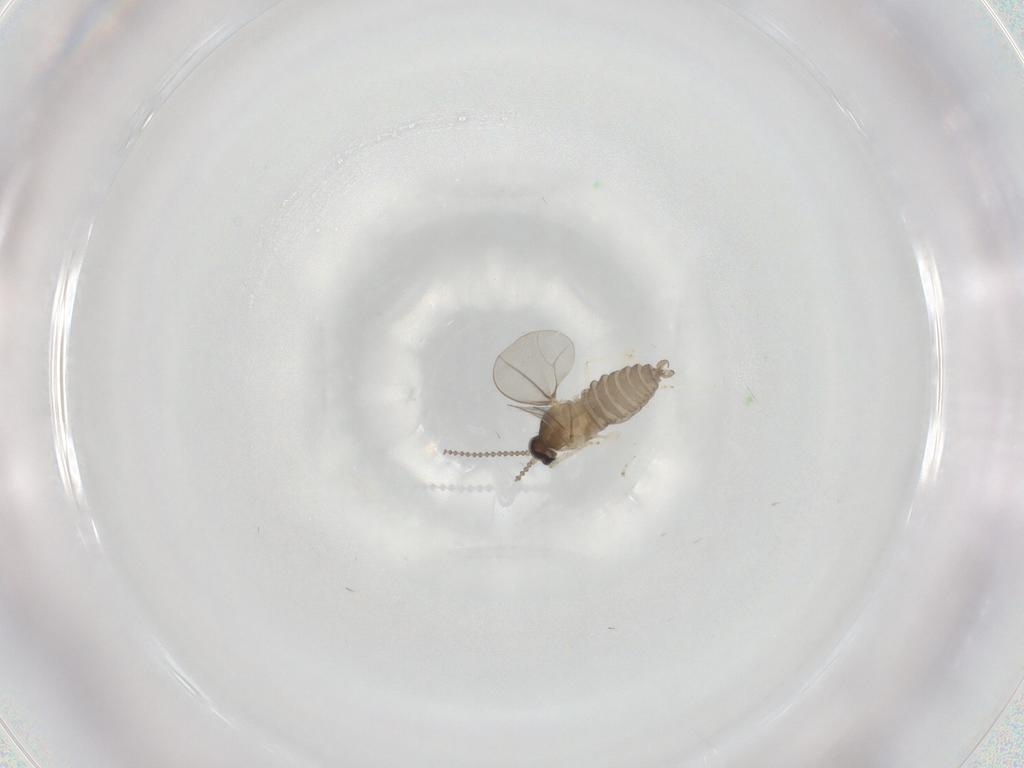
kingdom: Animalia
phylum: Arthropoda
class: Insecta
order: Diptera
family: Cecidomyiidae
